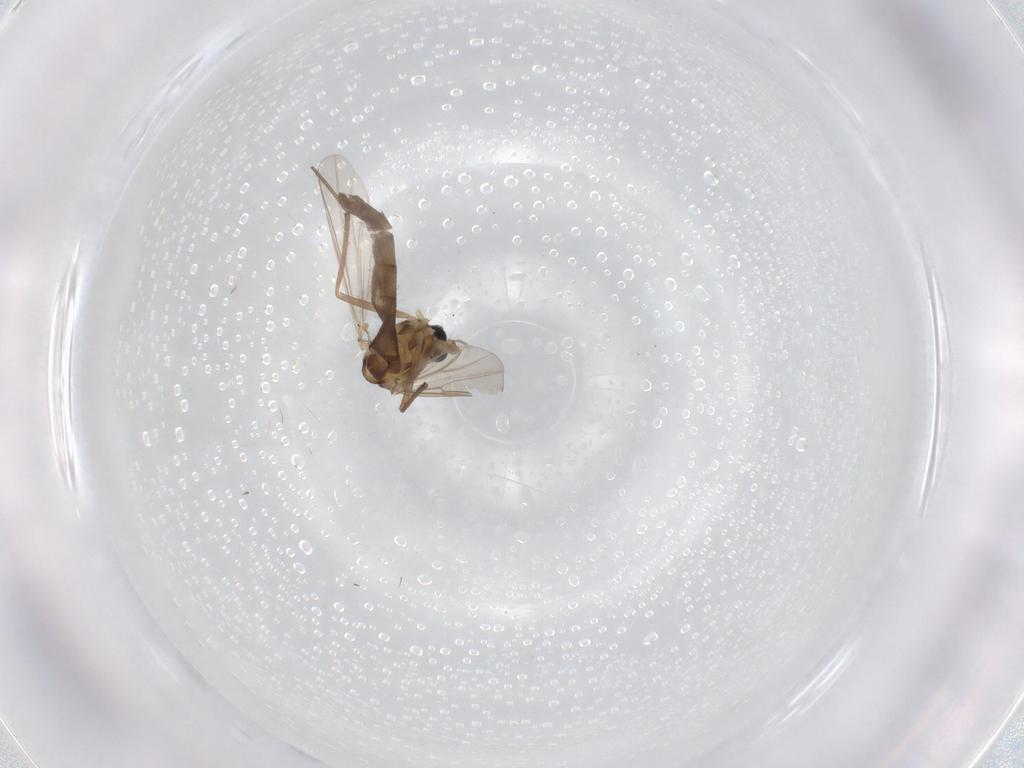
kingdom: Animalia
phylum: Arthropoda
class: Insecta
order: Diptera
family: Chironomidae
